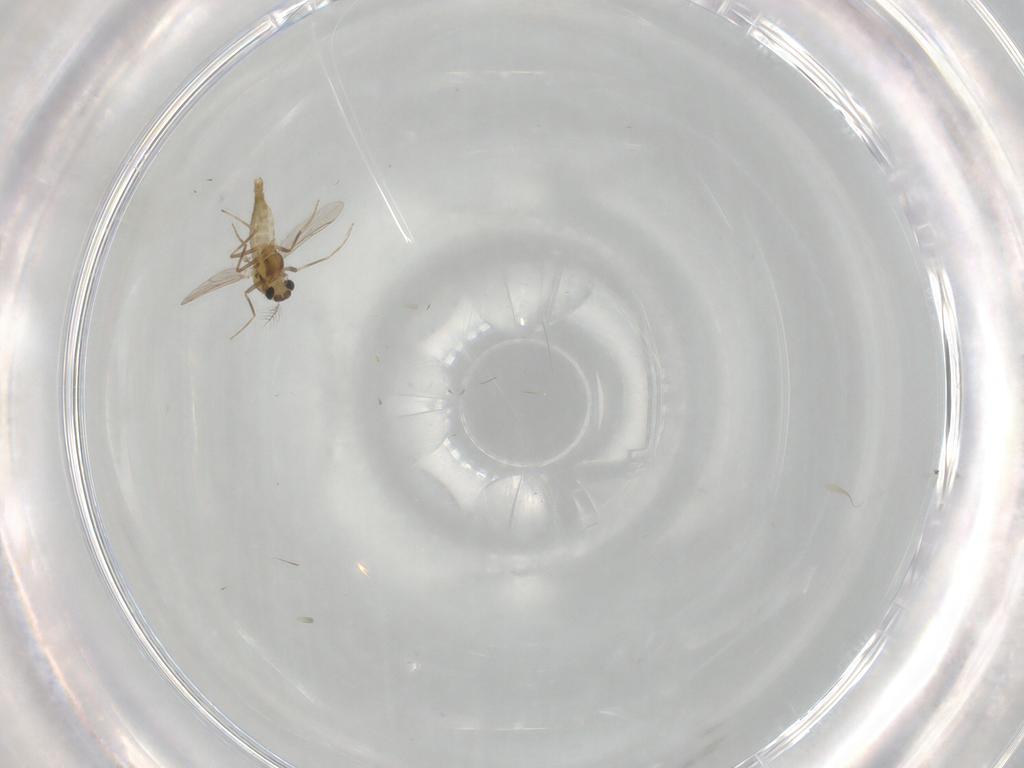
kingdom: Animalia
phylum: Arthropoda
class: Insecta
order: Diptera
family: Chironomidae
